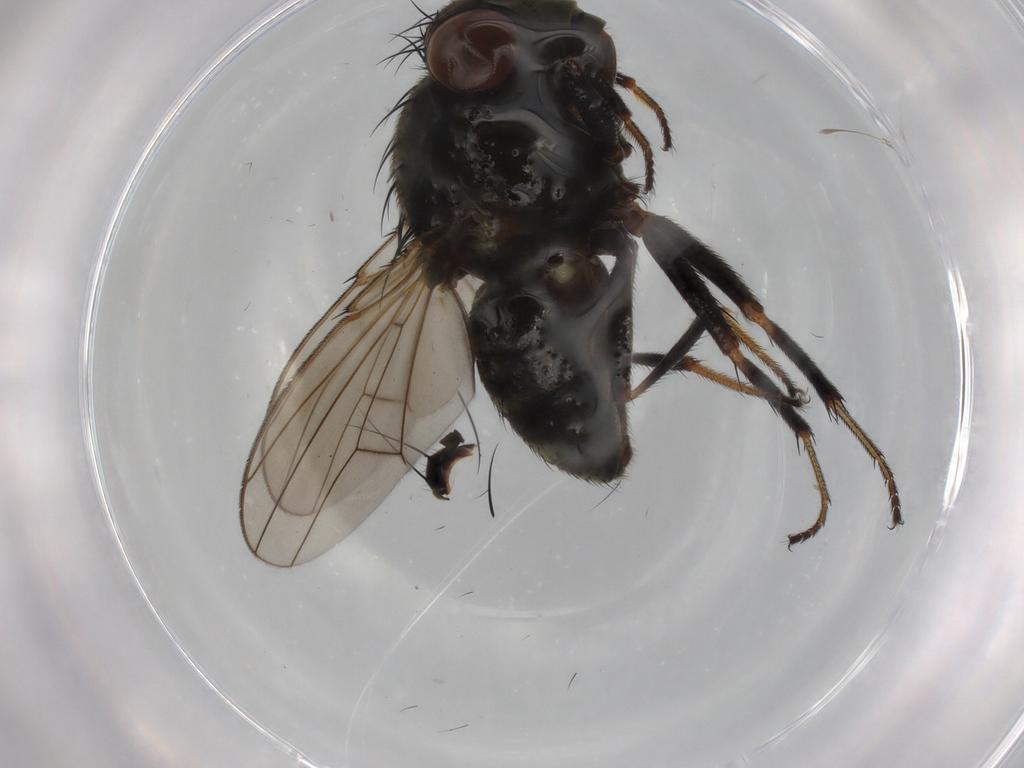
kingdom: Animalia
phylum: Arthropoda
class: Insecta
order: Diptera
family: Ephydridae
